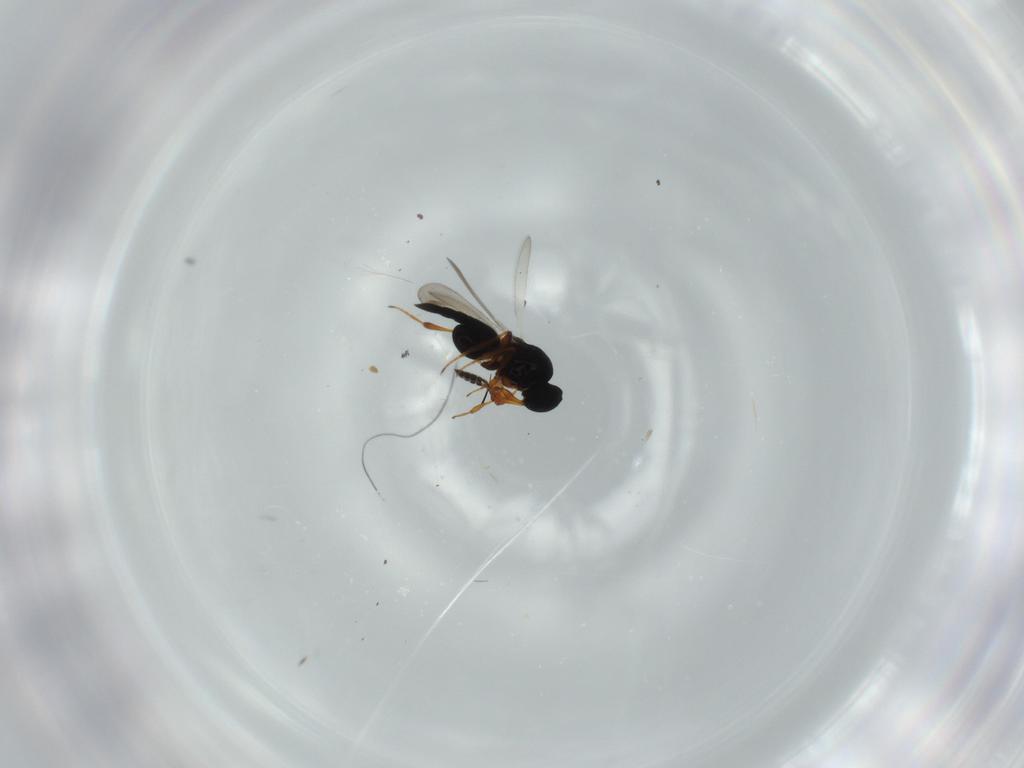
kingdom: Animalia
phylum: Arthropoda
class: Insecta
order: Hymenoptera
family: Platygastridae
